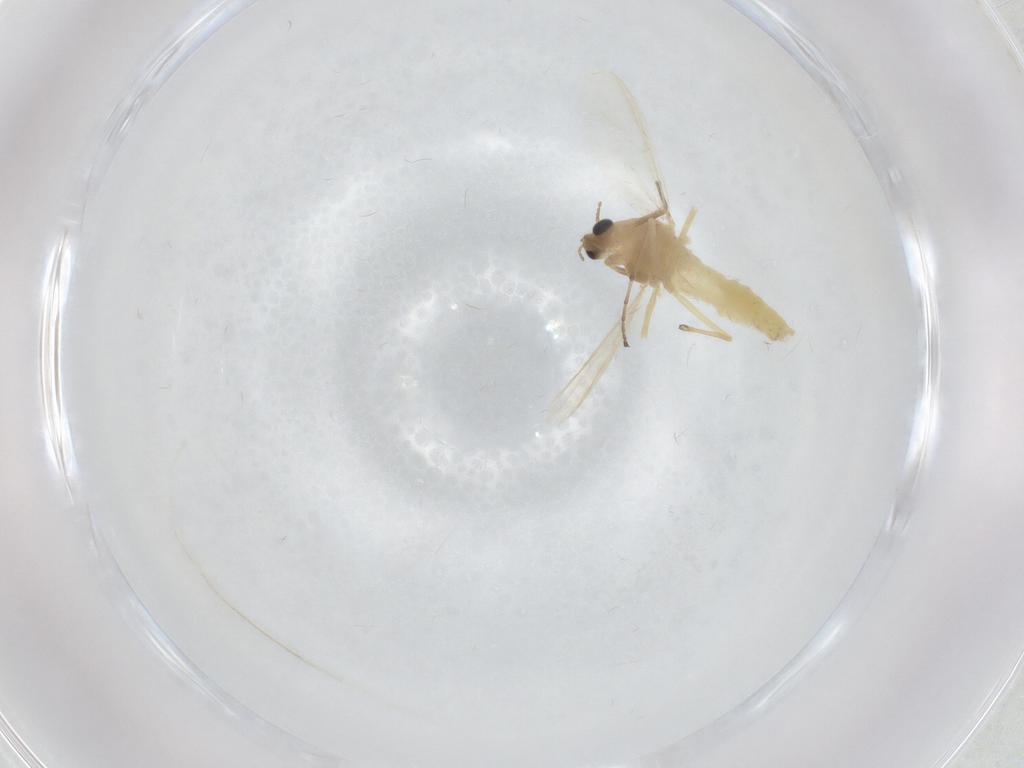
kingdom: Animalia
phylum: Arthropoda
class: Insecta
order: Diptera
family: Chironomidae
